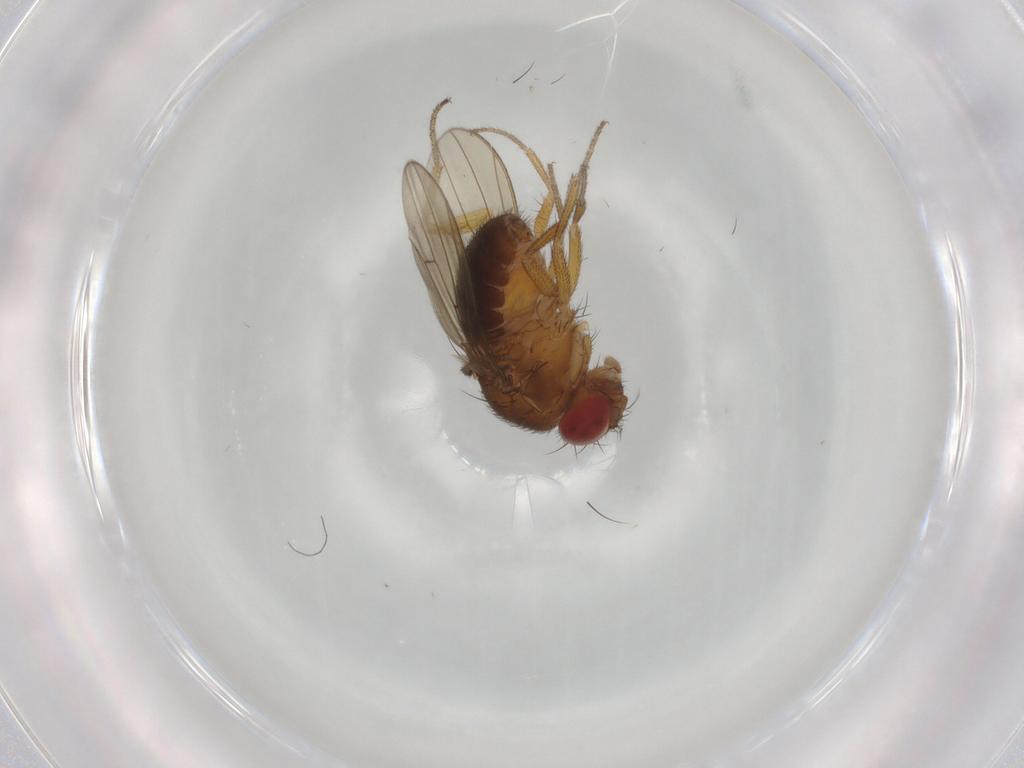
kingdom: Animalia
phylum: Arthropoda
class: Insecta
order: Diptera
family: Drosophilidae
